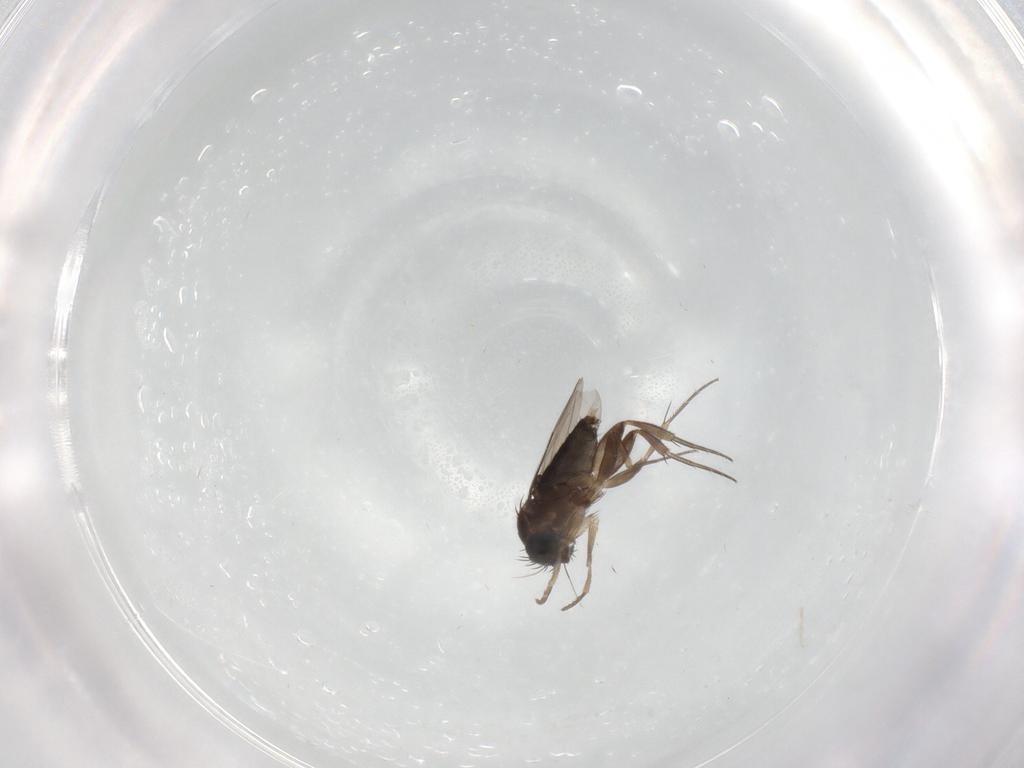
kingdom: Animalia
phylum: Arthropoda
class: Insecta
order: Diptera
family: Phoridae
